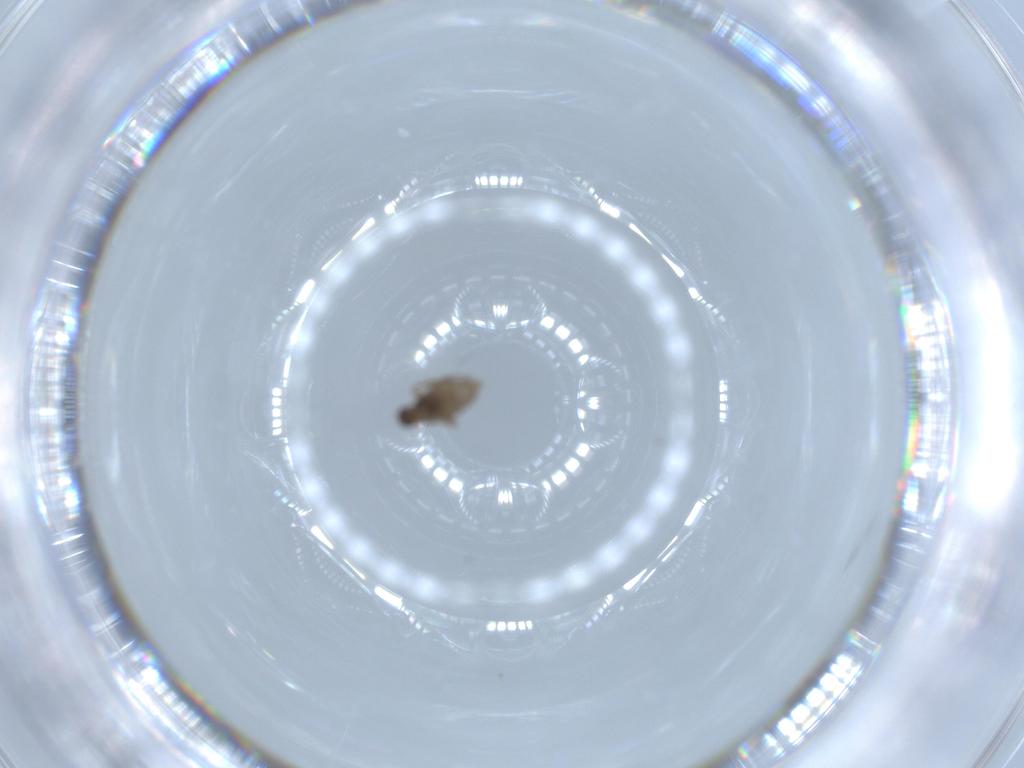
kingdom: Animalia
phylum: Arthropoda
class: Insecta
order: Diptera
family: Phoridae
